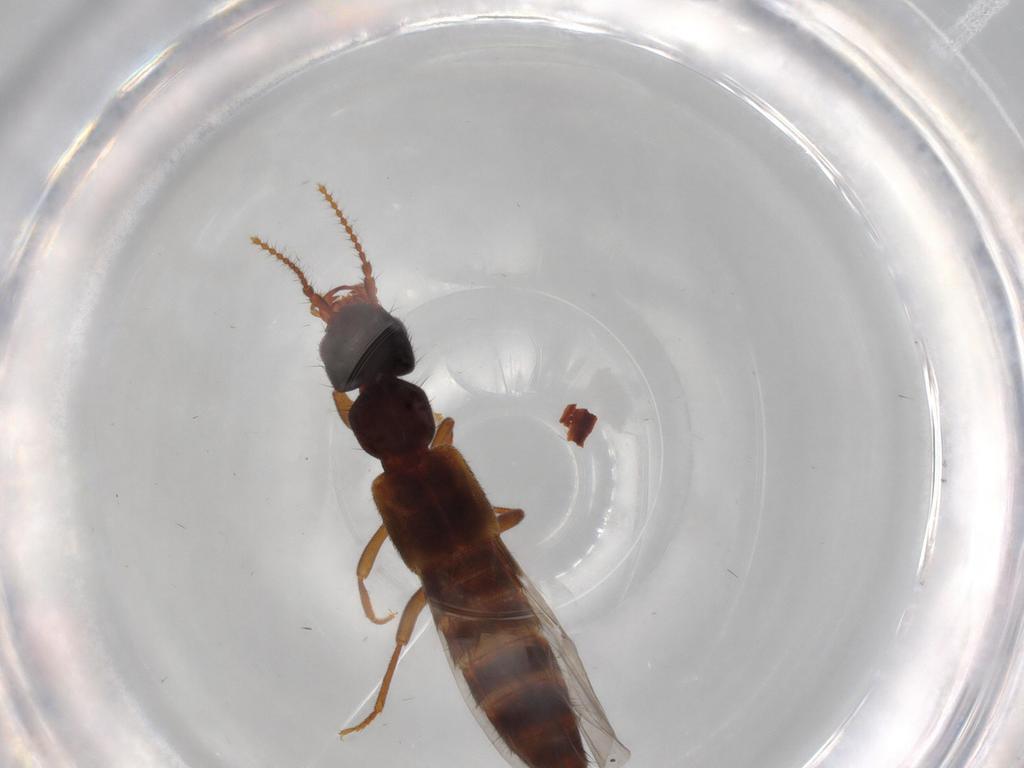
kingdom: Animalia
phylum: Arthropoda
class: Insecta
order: Coleoptera
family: Staphylinidae
